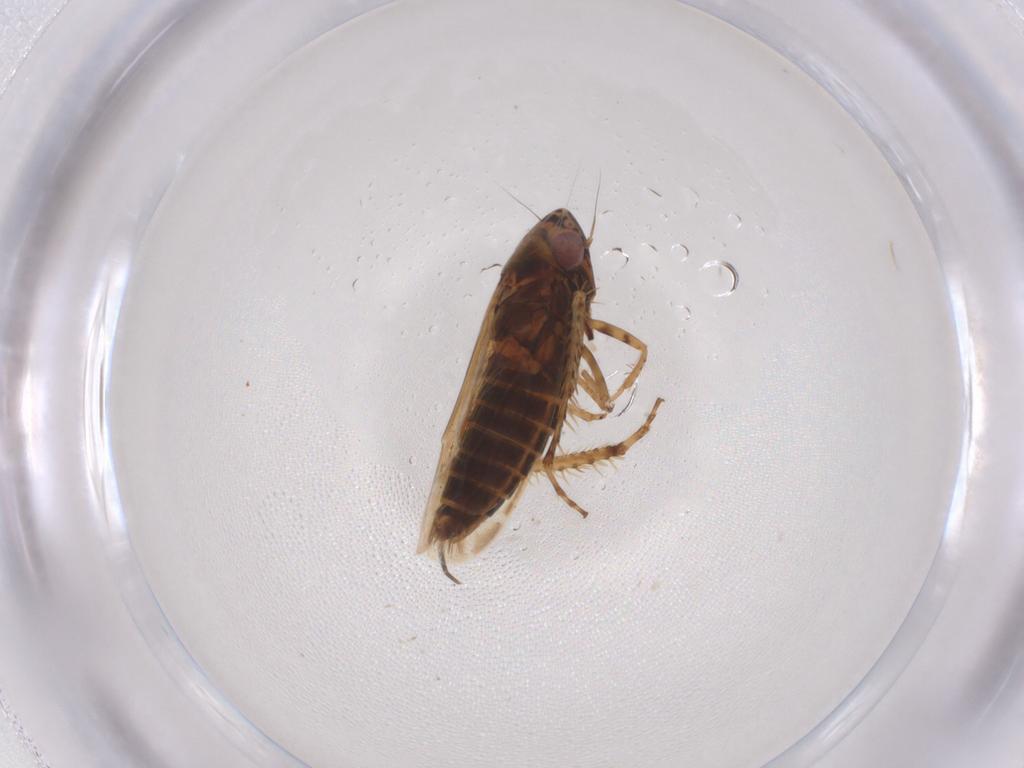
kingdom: Animalia
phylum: Arthropoda
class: Insecta
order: Hemiptera
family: Cicadellidae
